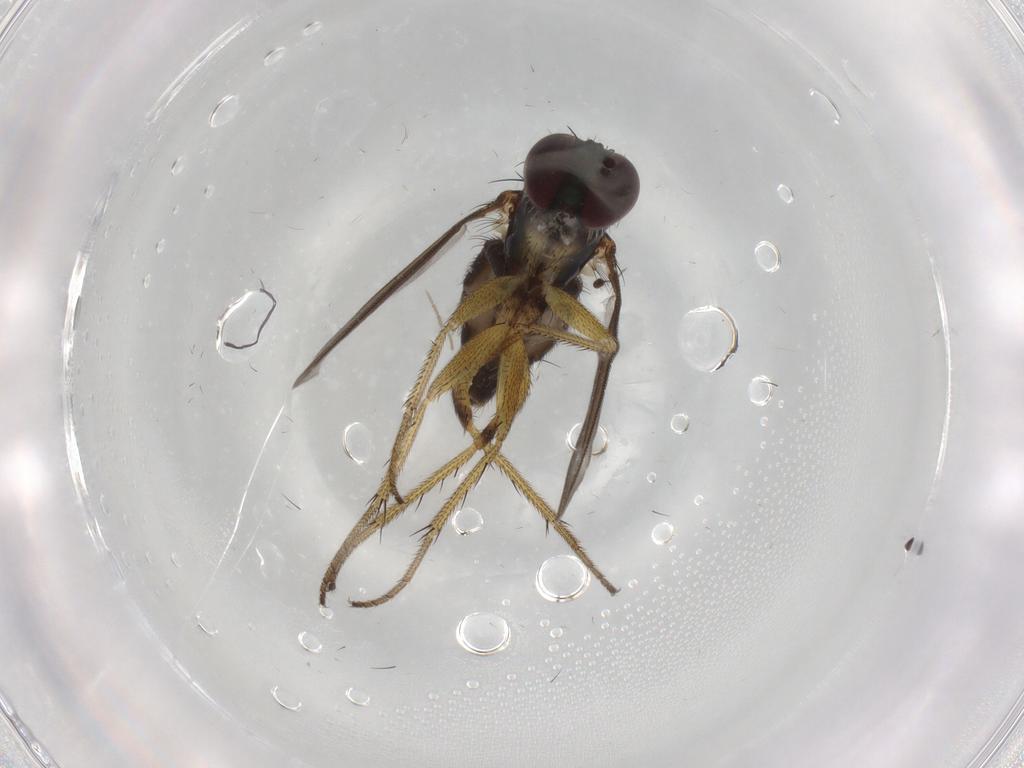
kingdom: Animalia
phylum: Arthropoda
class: Insecta
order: Diptera
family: Dolichopodidae
